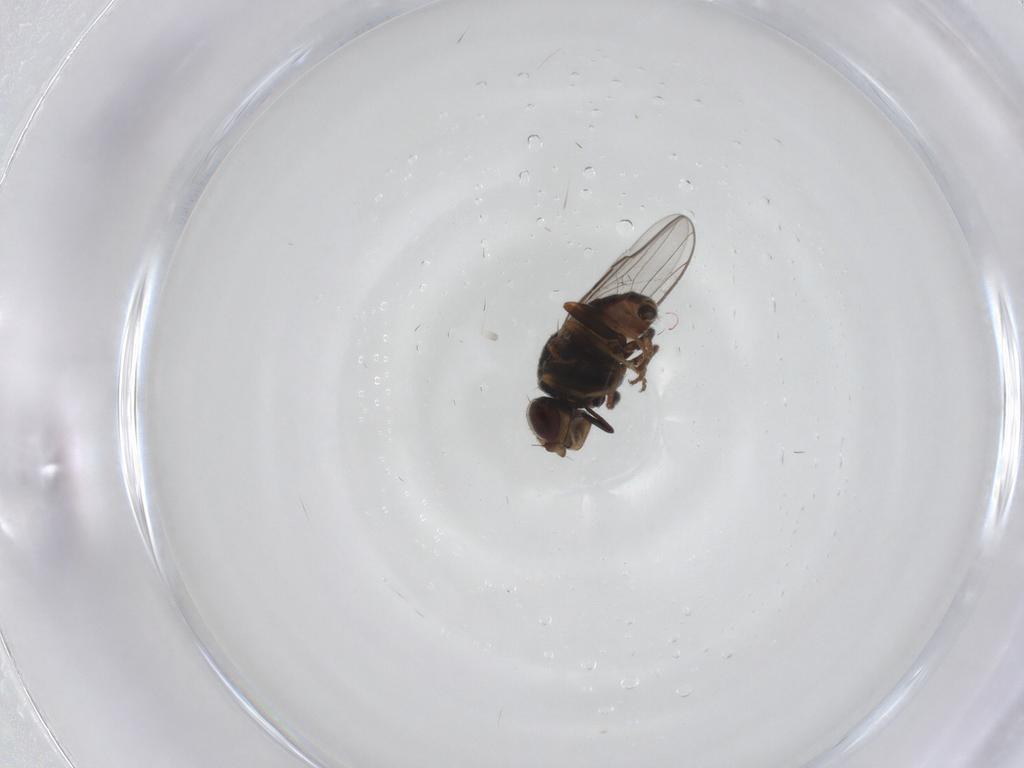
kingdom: Animalia
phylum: Arthropoda
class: Insecta
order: Diptera
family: Chloropidae
